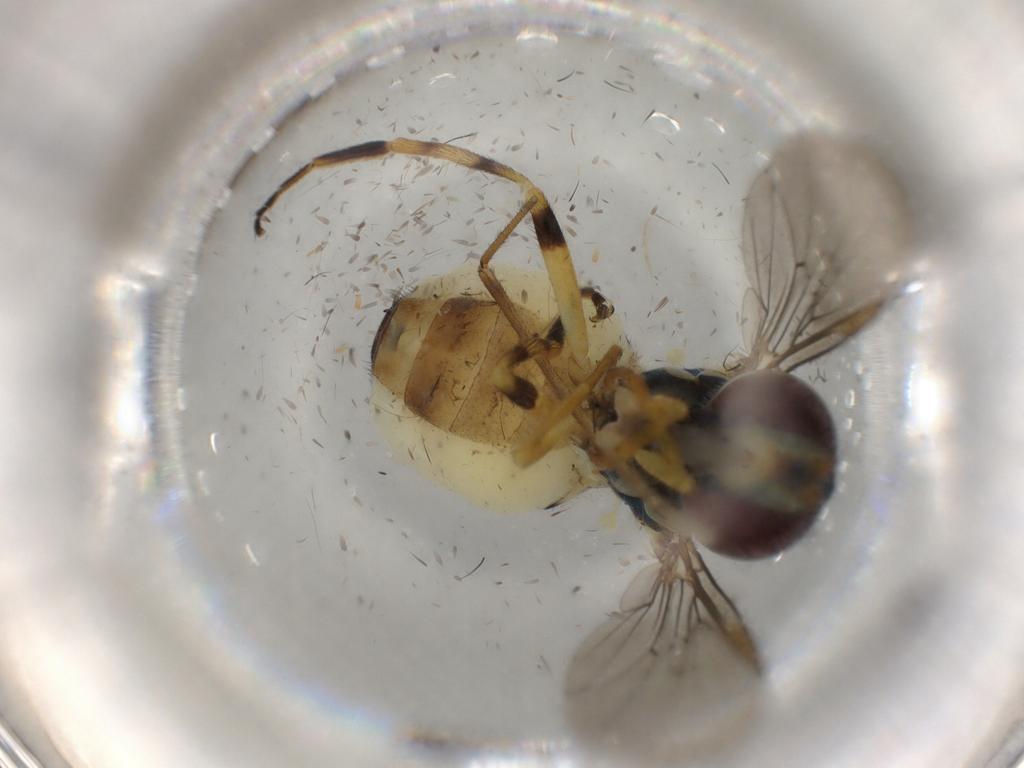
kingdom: Animalia
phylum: Arthropoda
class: Insecta
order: Diptera
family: Syrphidae
